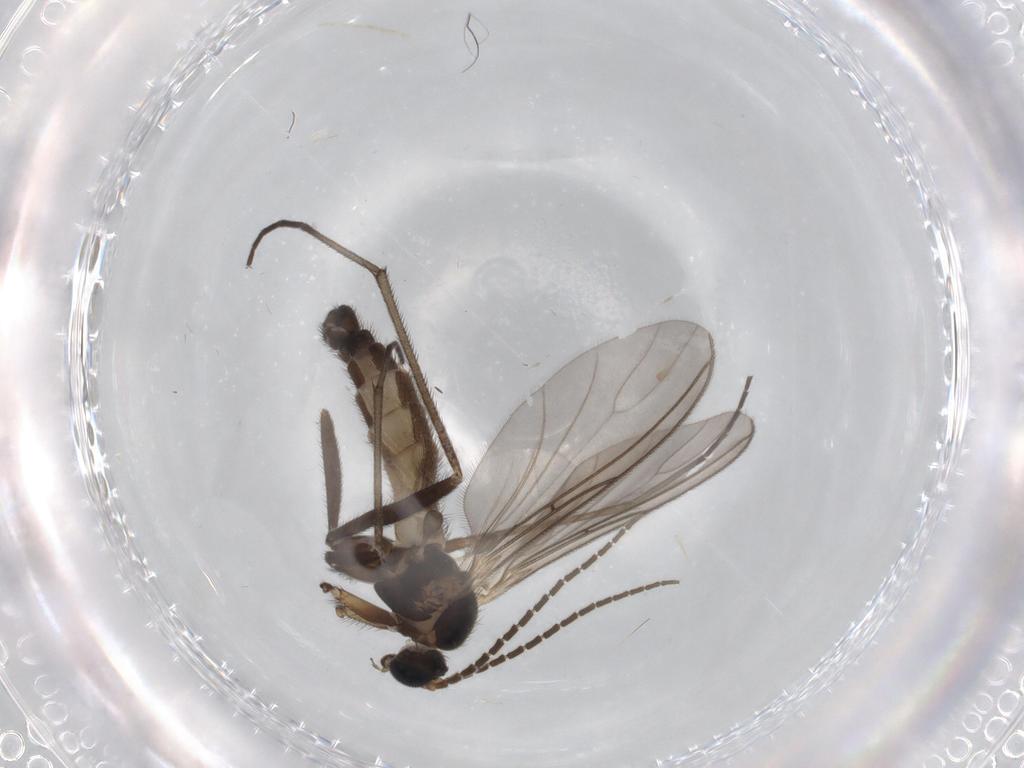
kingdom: Animalia
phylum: Arthropoda
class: Insecta
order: Diptera
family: Sciaridae
